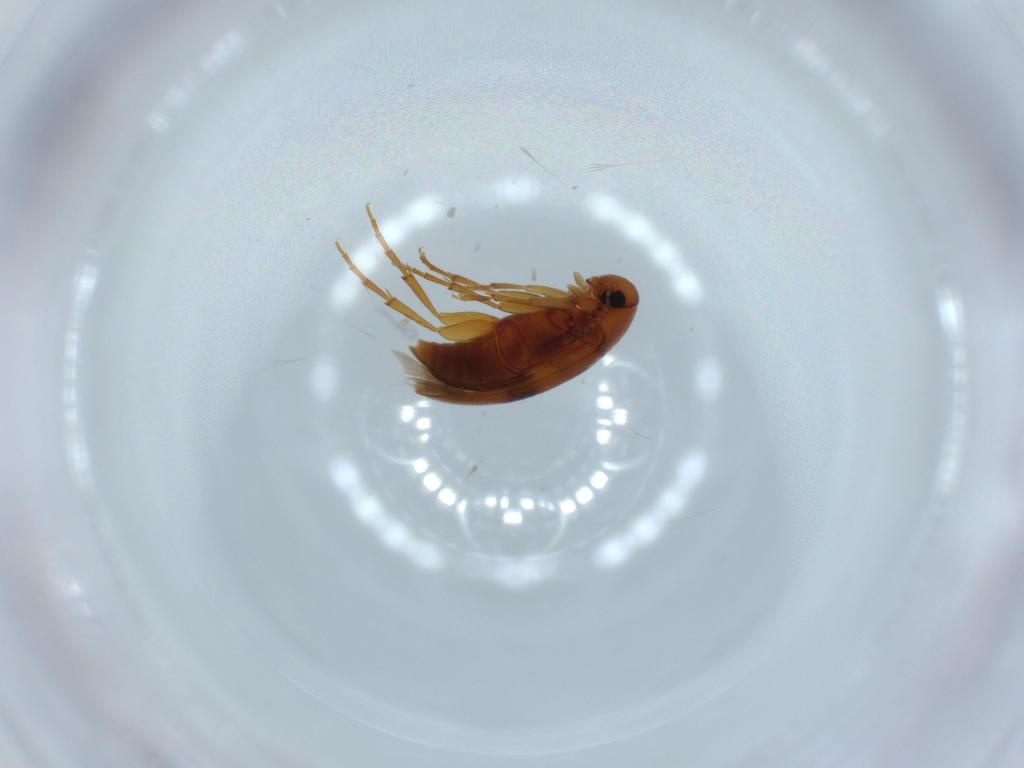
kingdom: Animalia
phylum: Arthropoda
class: Insecta
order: Coleoptera
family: Scraptiidae
